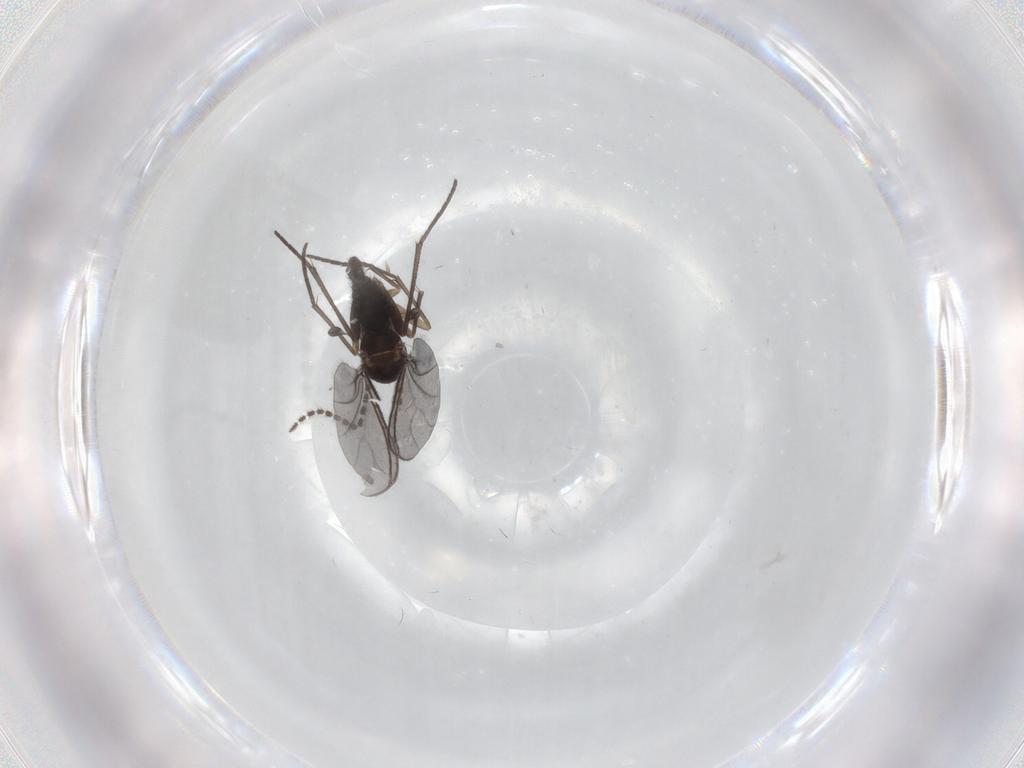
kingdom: Animalia
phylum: Arthropoda
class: Insecta
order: Diptera
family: Sciaridae
